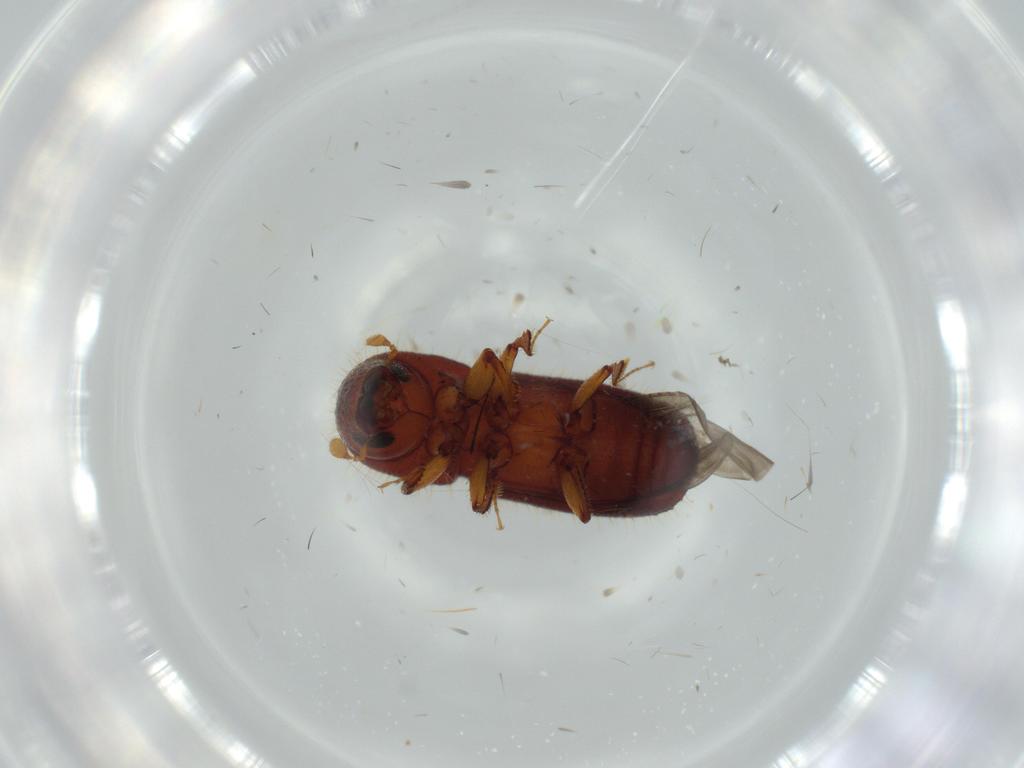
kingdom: Animalia
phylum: Arthropoda
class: Insecta
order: Coleoptera
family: Curculionidae
